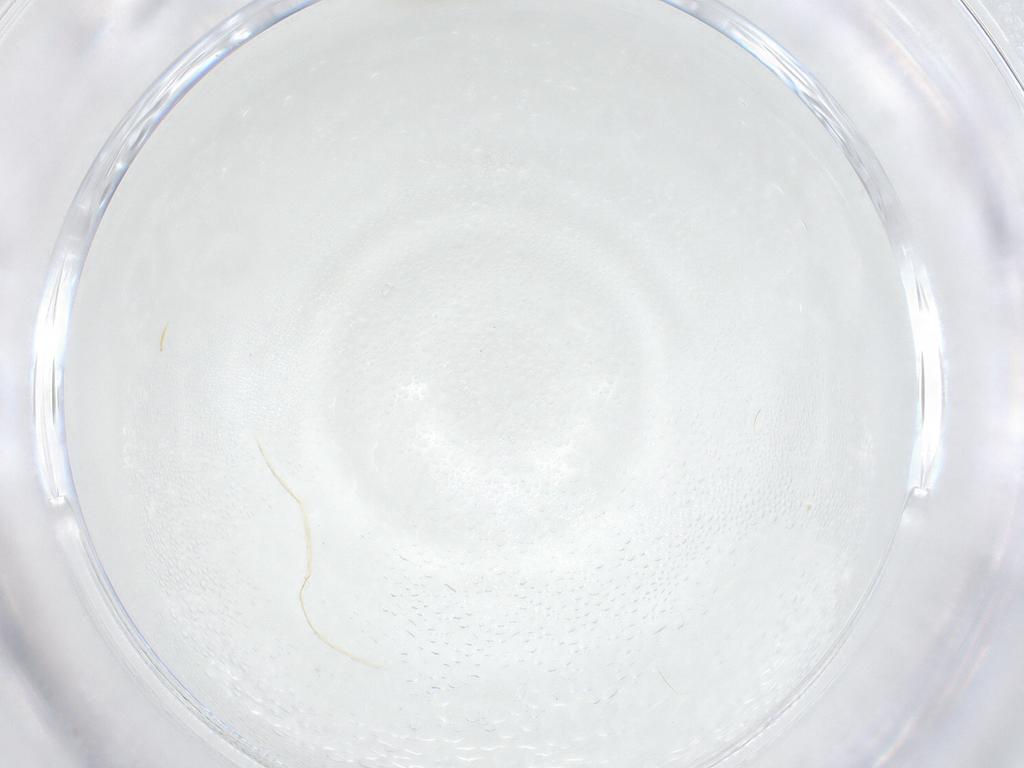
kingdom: Animalia
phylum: Arthropoda
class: Insecta
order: Diptera
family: Cecidomyiidae
